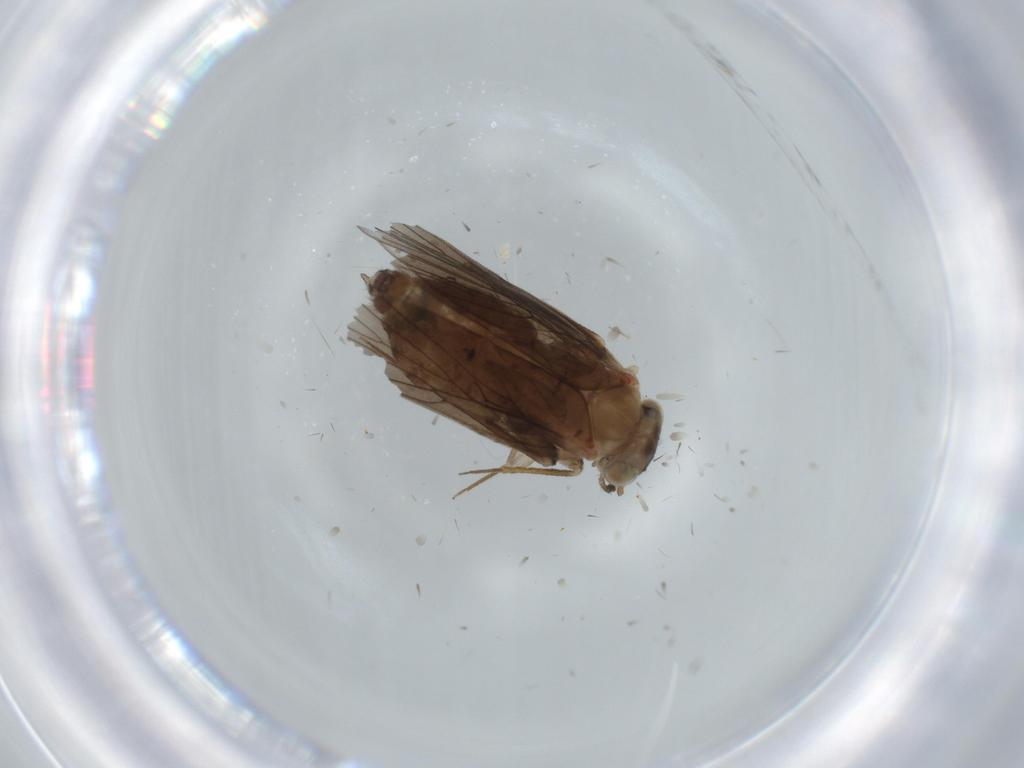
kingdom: Animalia
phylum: Arthropoda
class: Insecta
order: Psocodea
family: Lepidopsocidae
